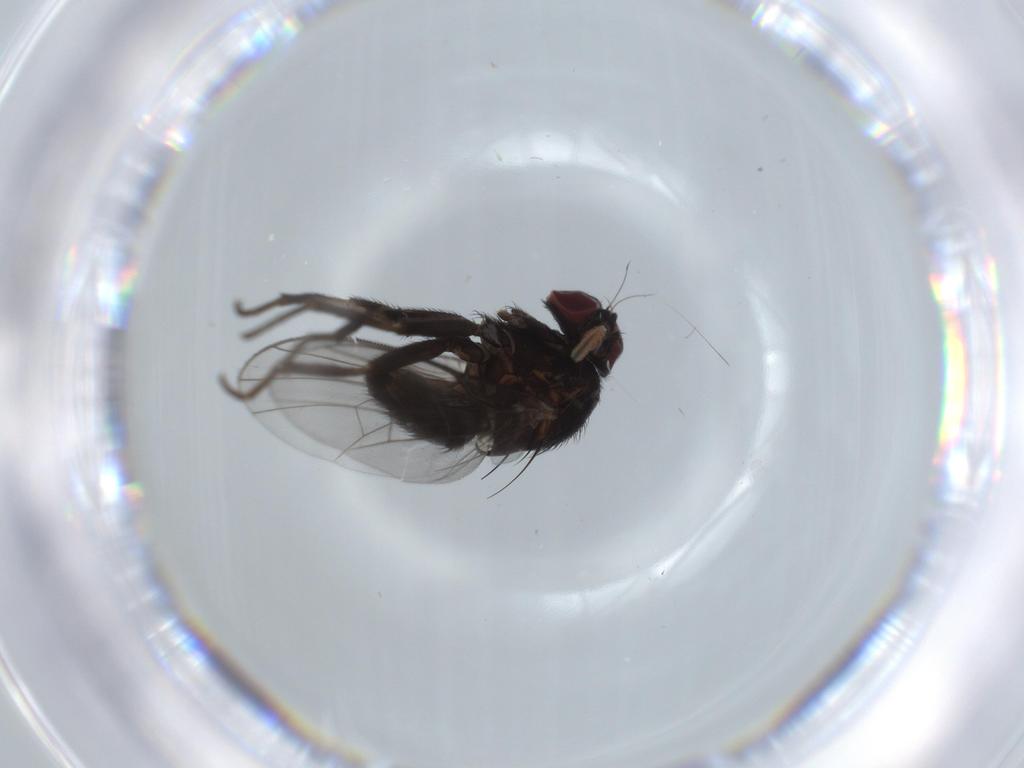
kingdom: Animalia
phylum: Arthropoda
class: Insecta
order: Diptera
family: Agromyzidae
